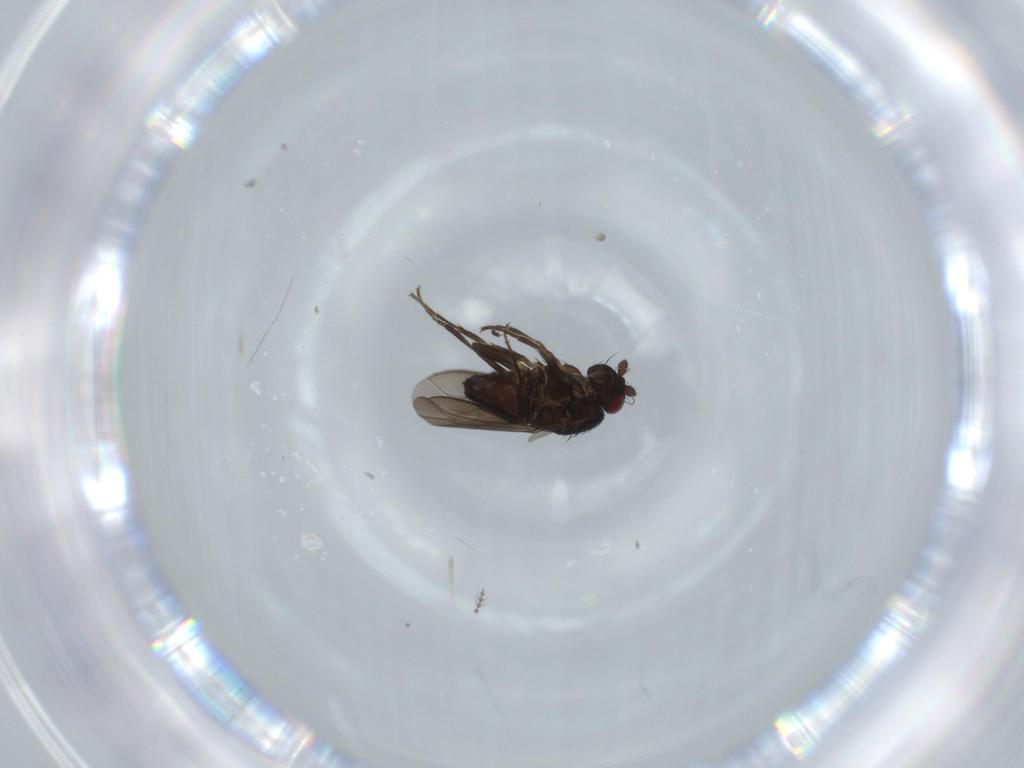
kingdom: Animalia
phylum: Arthropoda
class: Insecta
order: Diptera
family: Sphaeroceridae
